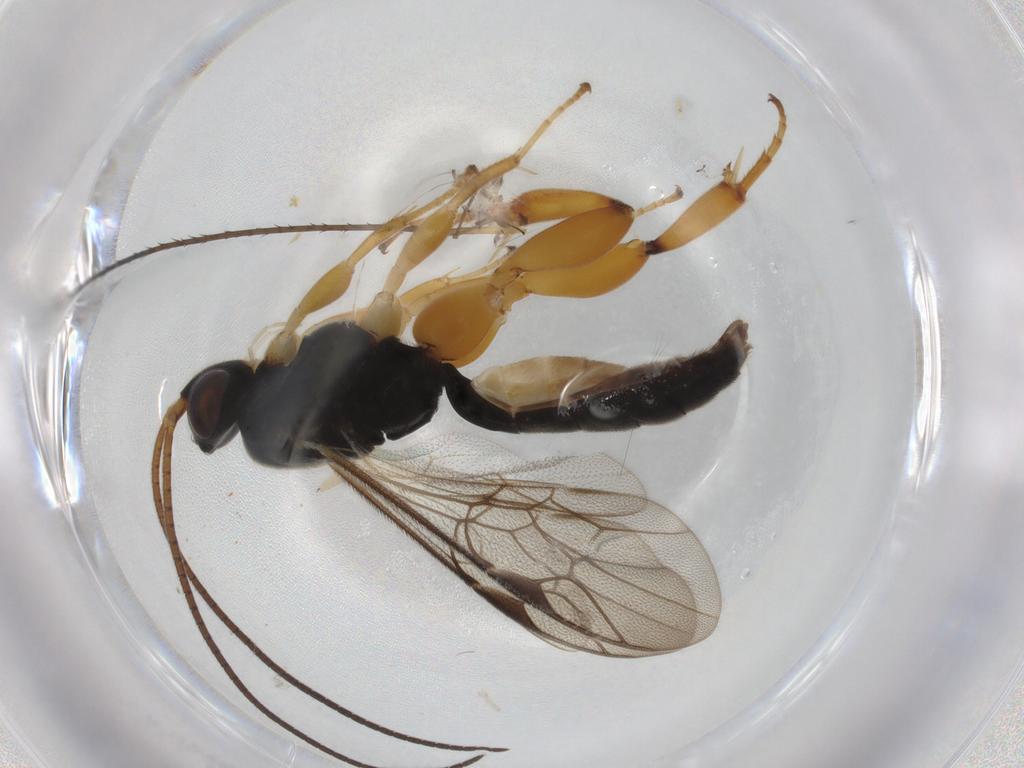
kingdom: Animalia
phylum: Arthropoda
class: Insecta
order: Hymenoptera
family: Ichneumonidae
